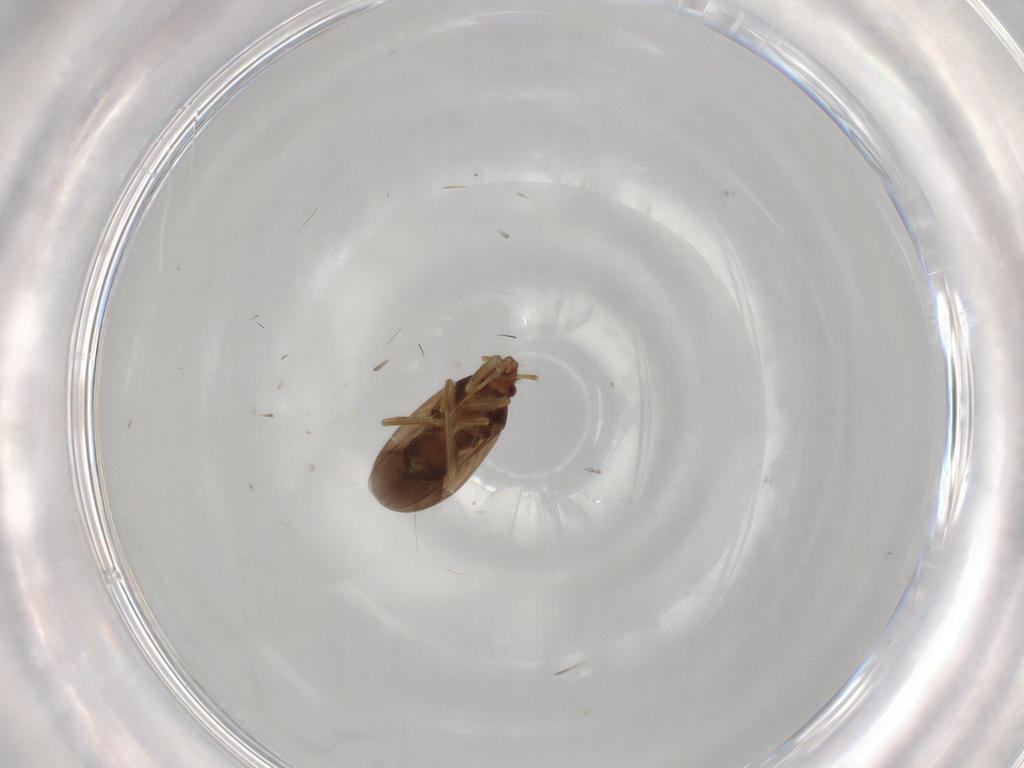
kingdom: Animalia
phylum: Arthropoda
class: Insecta
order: Hemiptera
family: Ceratocombidae
